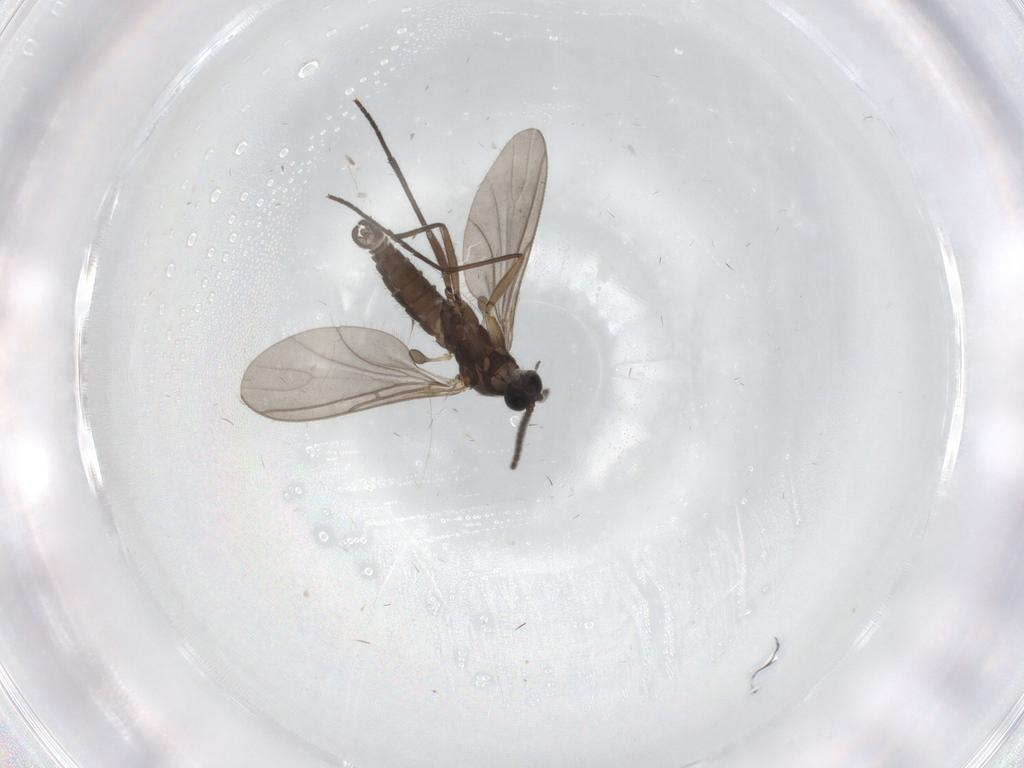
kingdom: Animalia
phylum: Arthropoda
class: Insecta
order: Diptera
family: Sciaridae
